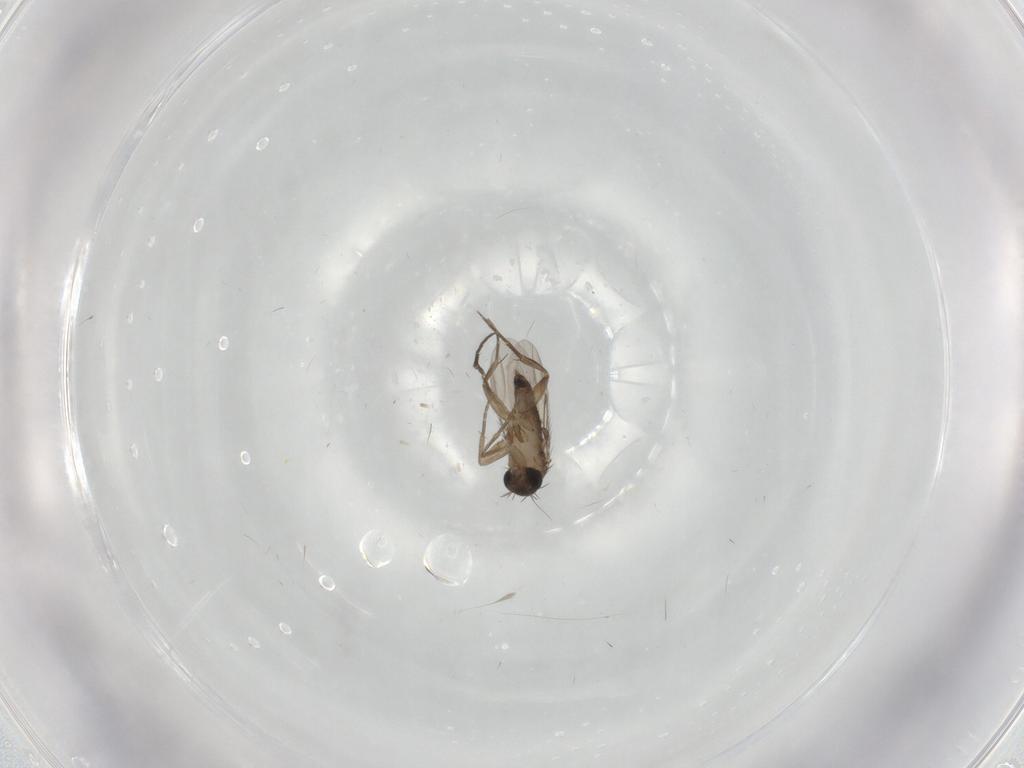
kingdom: Animalia
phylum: Arthropoda
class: Insecta
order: Diptera
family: Phoridae
